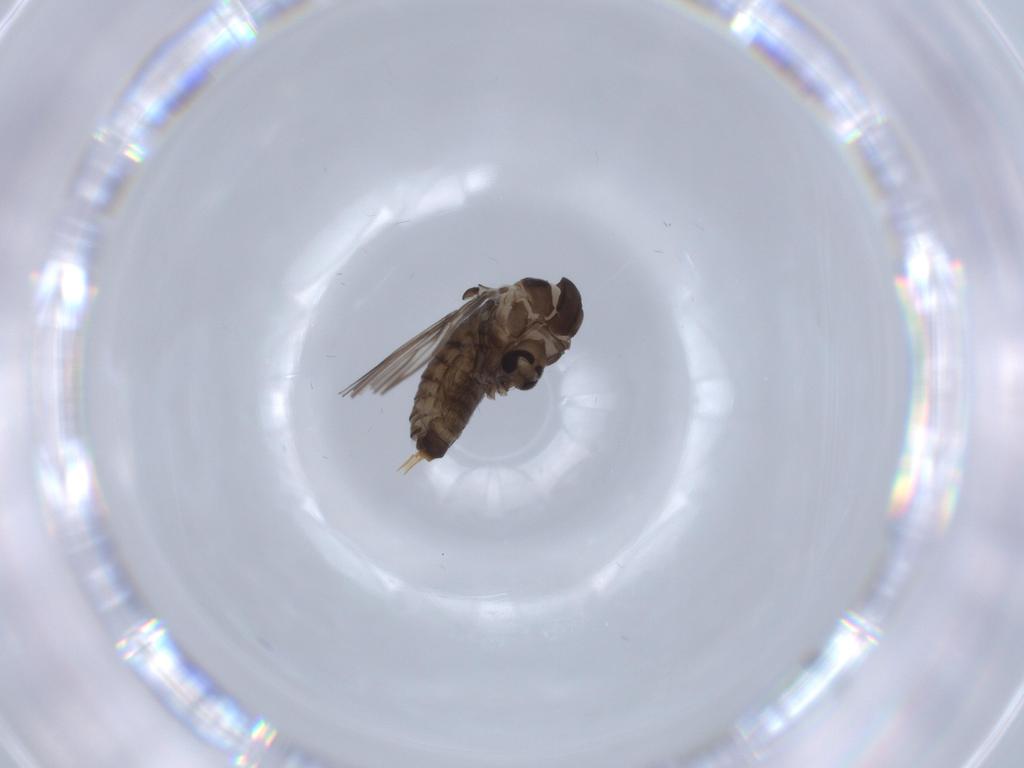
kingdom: Animalia
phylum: Arthropoda
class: Insecta
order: Diptera
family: Psychodidae
